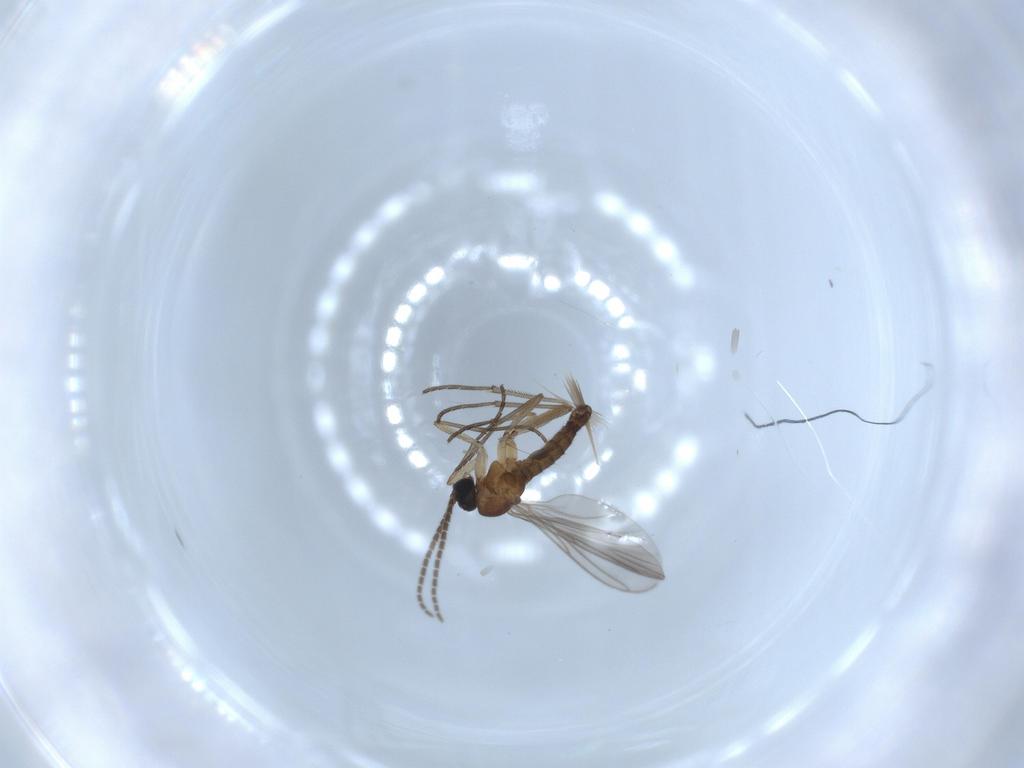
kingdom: Animalia
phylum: Arthropoda
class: Insecta
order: Diptera
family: Sciaridae
